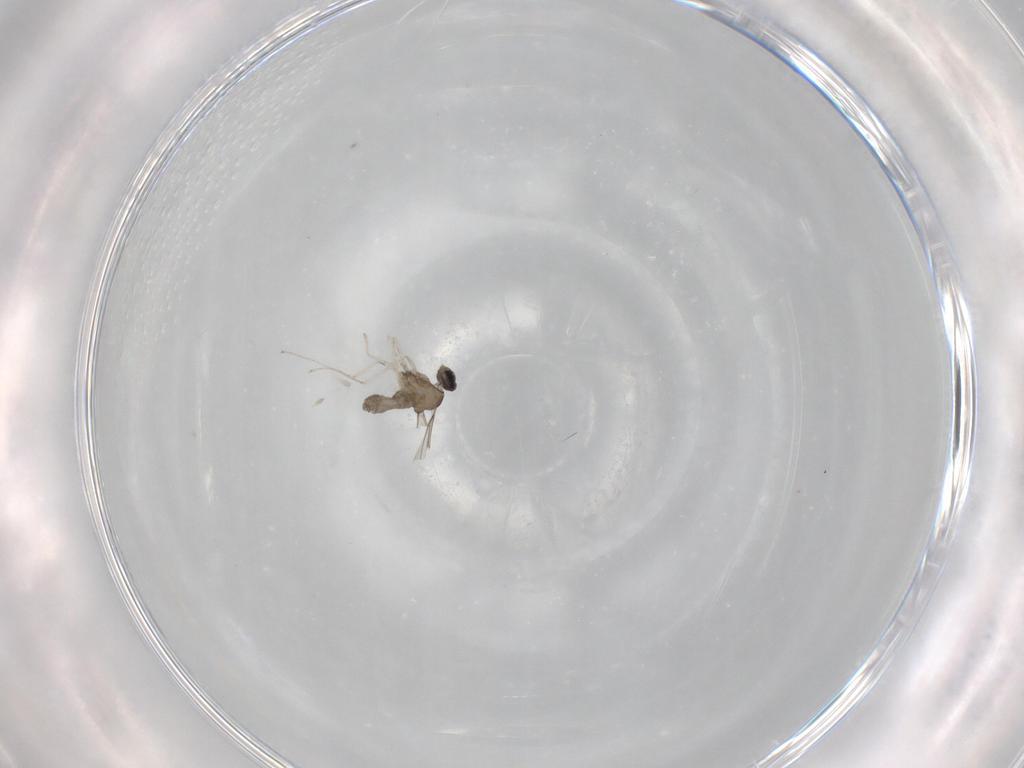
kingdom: Animalia
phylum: Arthropoda
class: Insecta
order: Diptera
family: Cecidomyiidae
